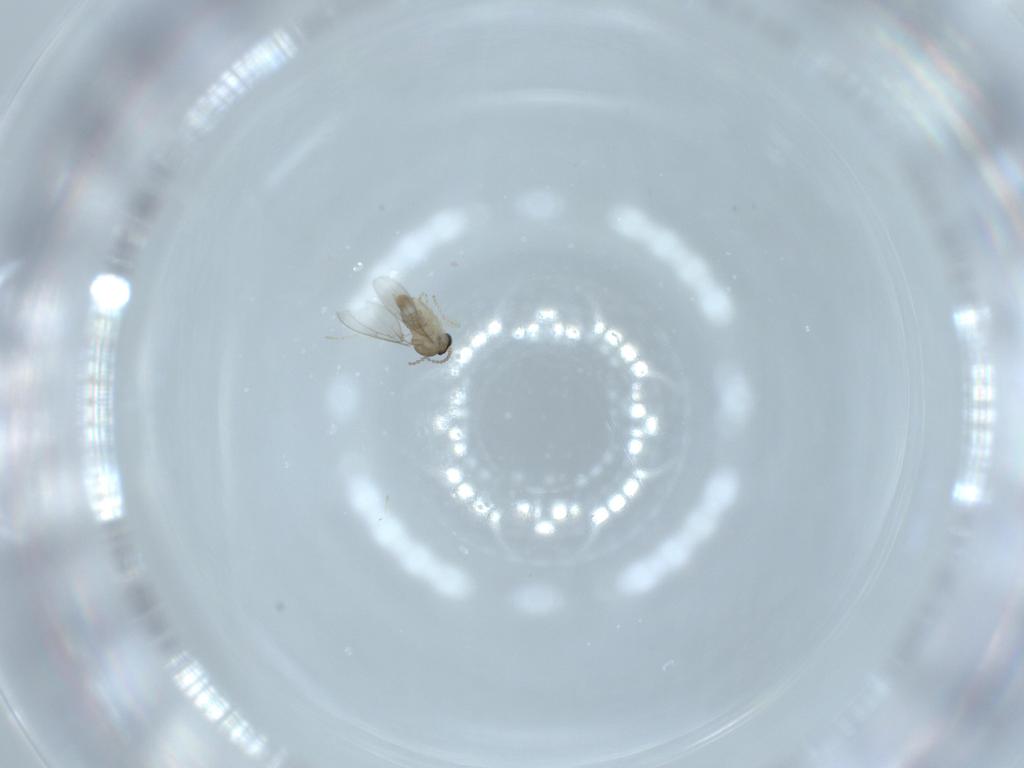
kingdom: Animalia
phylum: Arthropoda
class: Insecta
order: Diptera
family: Cecidomyiidae
